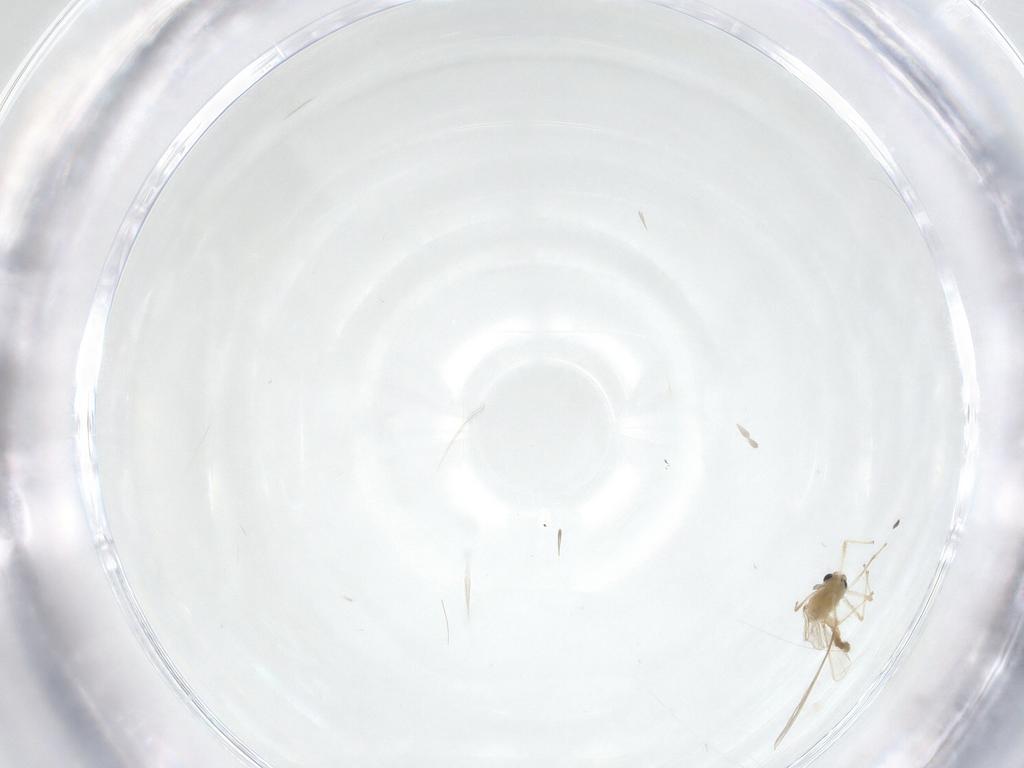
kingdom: Animalia
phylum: Arthropoda
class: Insecta
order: Diptera
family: Chironomidae
